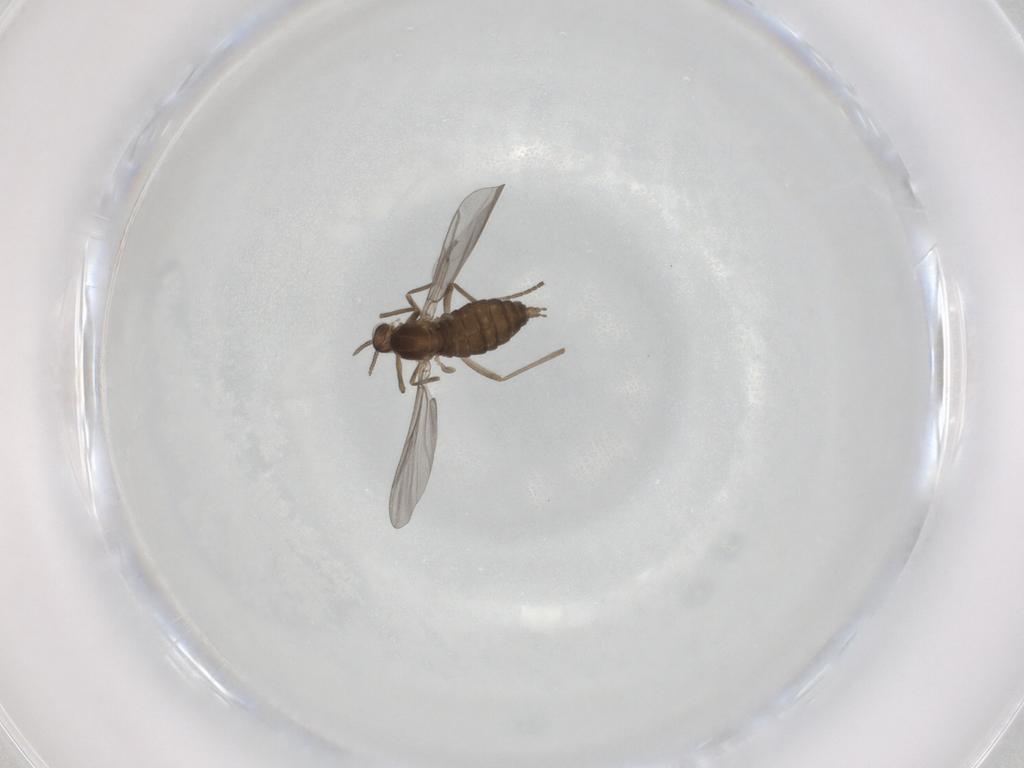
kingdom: Animalia
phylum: Arthropoda
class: Insecta
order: Diptera
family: Cecidomyiidae
